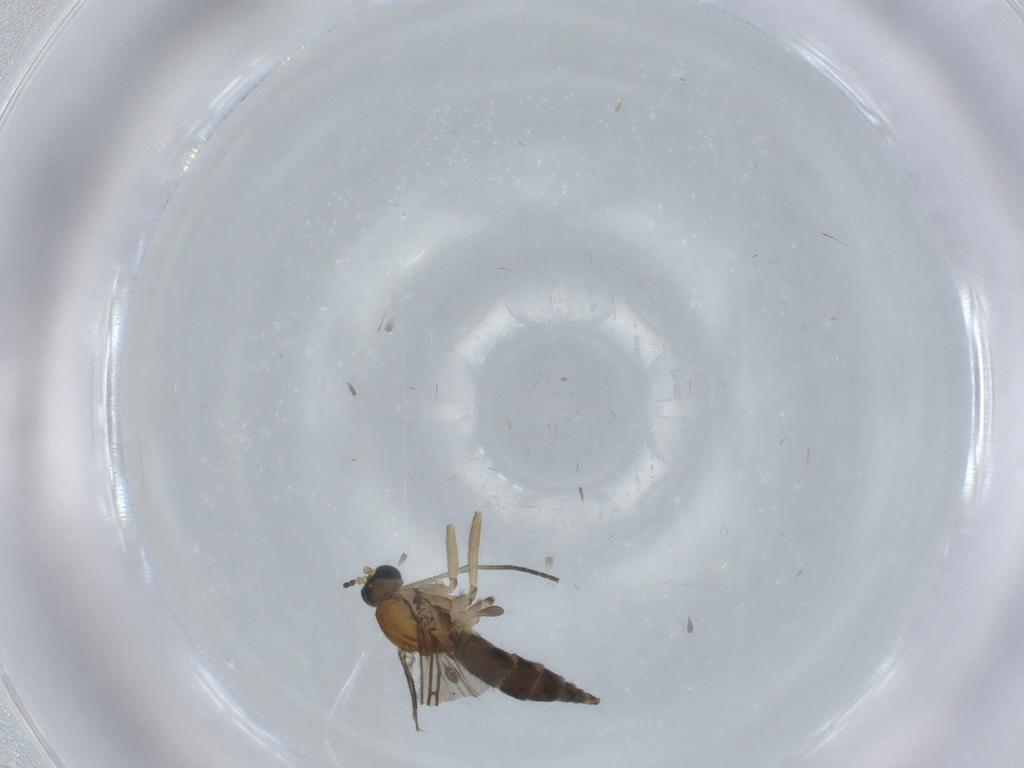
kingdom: Animalia
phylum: Arthropoda
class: Insecta
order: Diptera
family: Sciaridae
